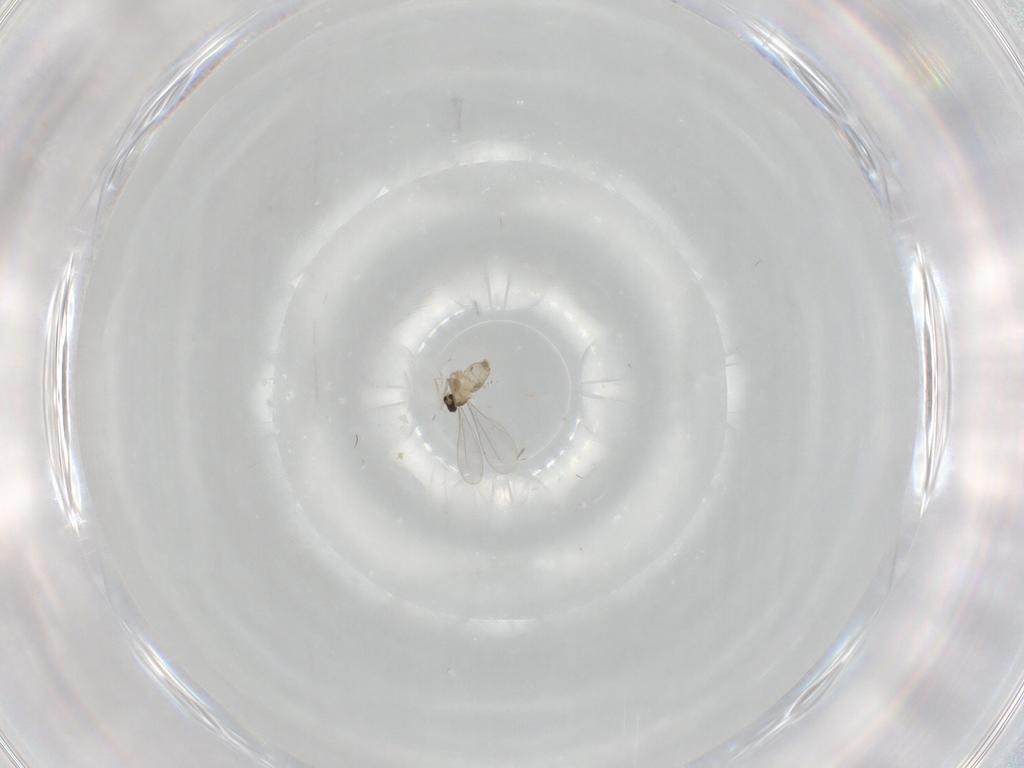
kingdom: Animalia
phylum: Arthropoda
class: Insecta
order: Diptera
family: Cecidomyiidae
